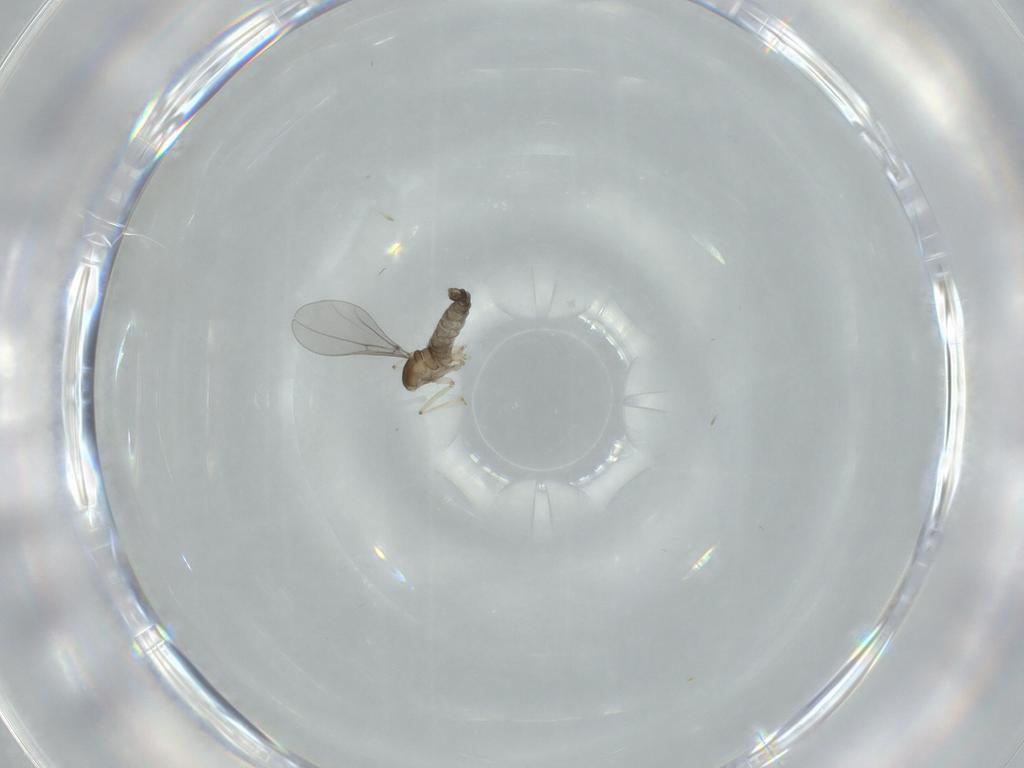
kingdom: Animalia
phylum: Arthropoda
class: Insecta
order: Diptera
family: Cecidomyiidae
